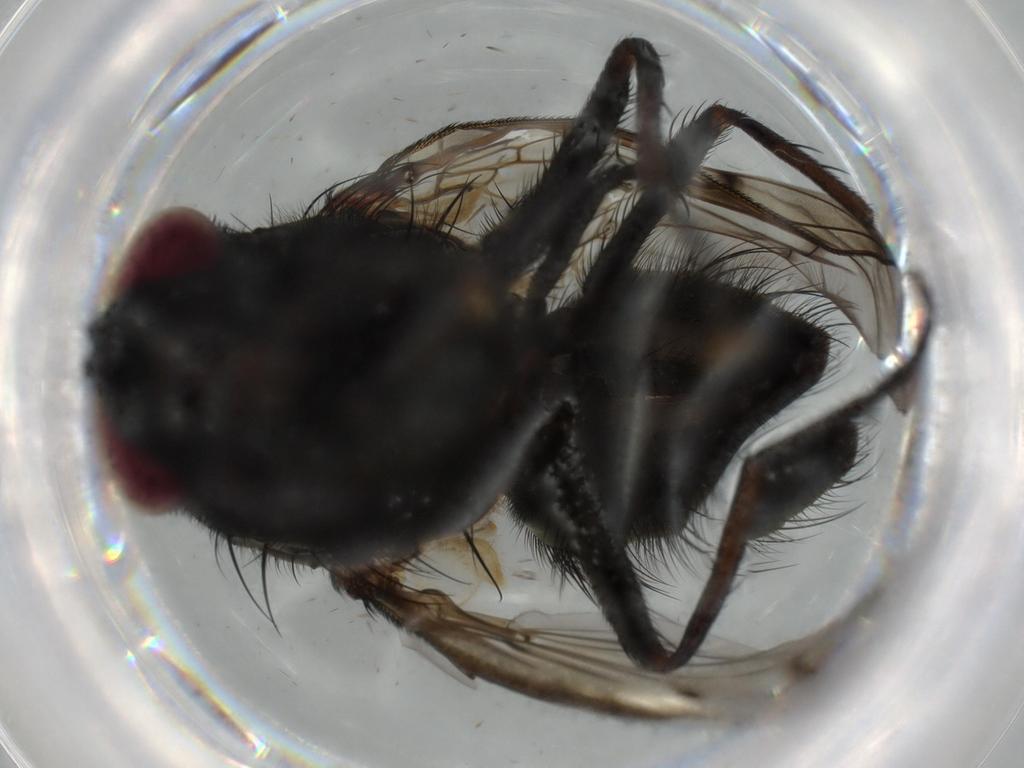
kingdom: Animalia
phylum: Arthropoda
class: Insecta
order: Diptera
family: Muscidae
